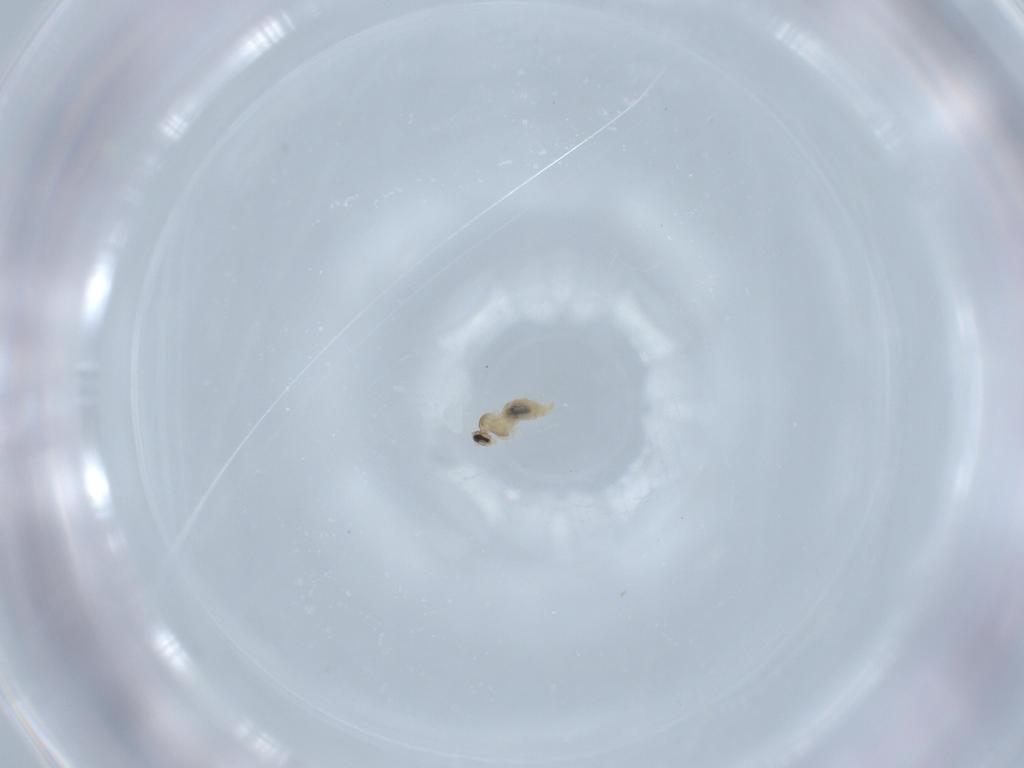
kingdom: Animalia
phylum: Arthropoda
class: Insecta
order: Diptera
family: Cecidomyiidae
